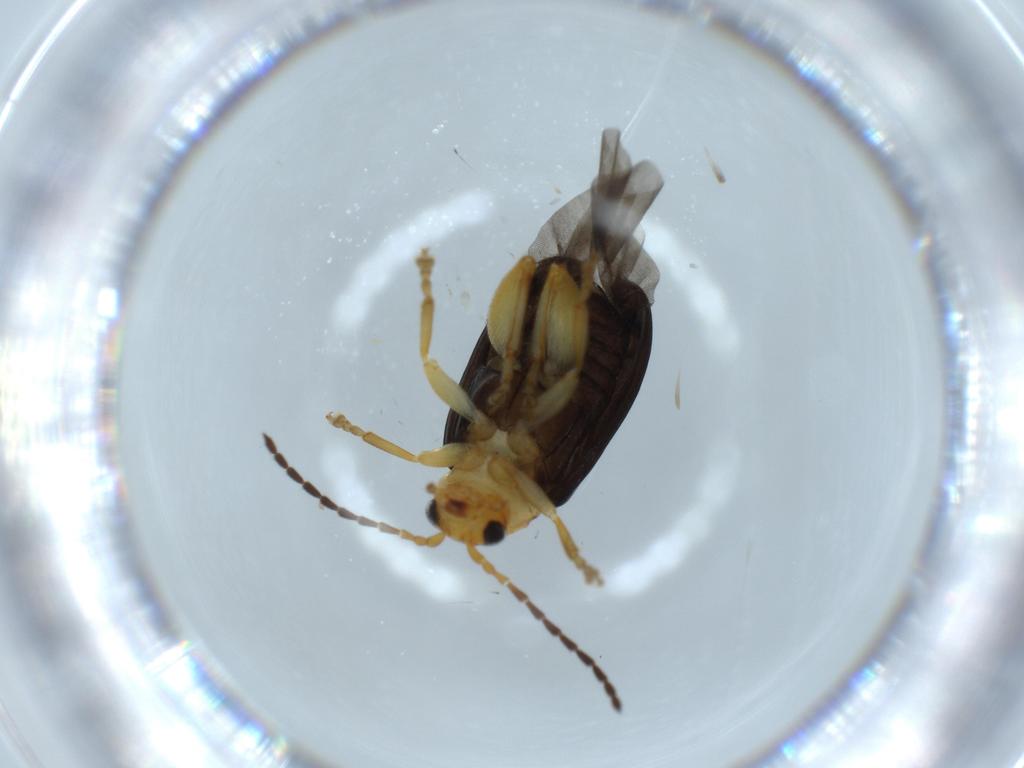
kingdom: Animalia
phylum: Arthropoda
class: Insecta
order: Coleoptera
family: Chrysomelidae
